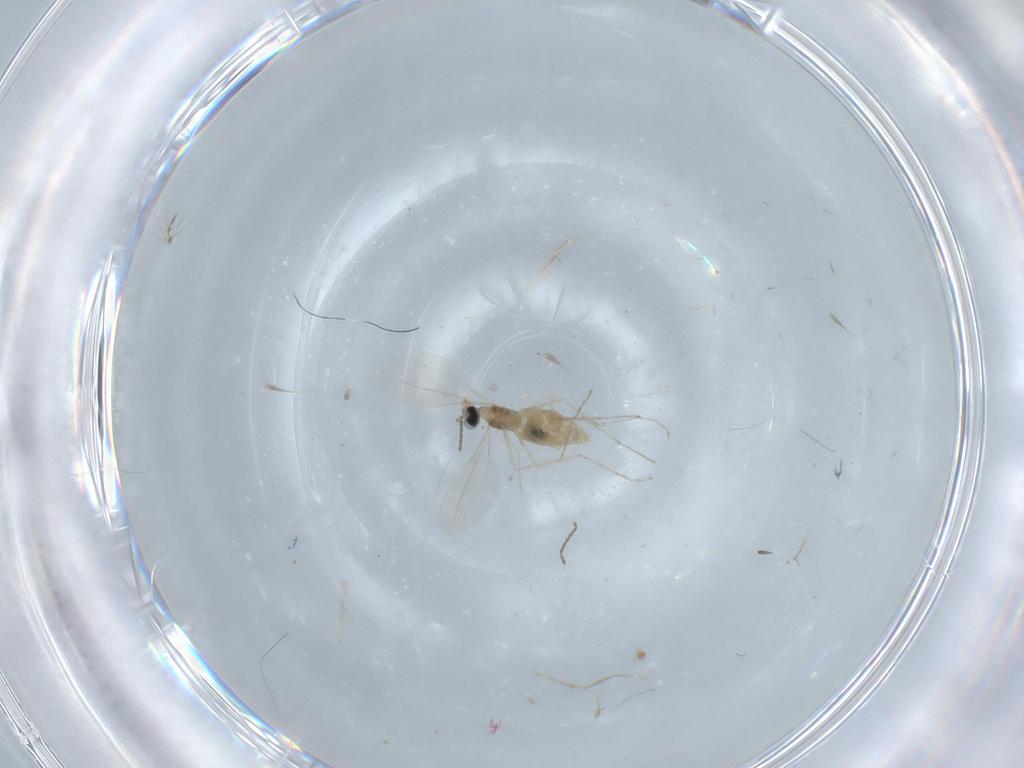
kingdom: Animalia
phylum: Arthropoda
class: Insecta
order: Diptera
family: Cecidomyiidae
